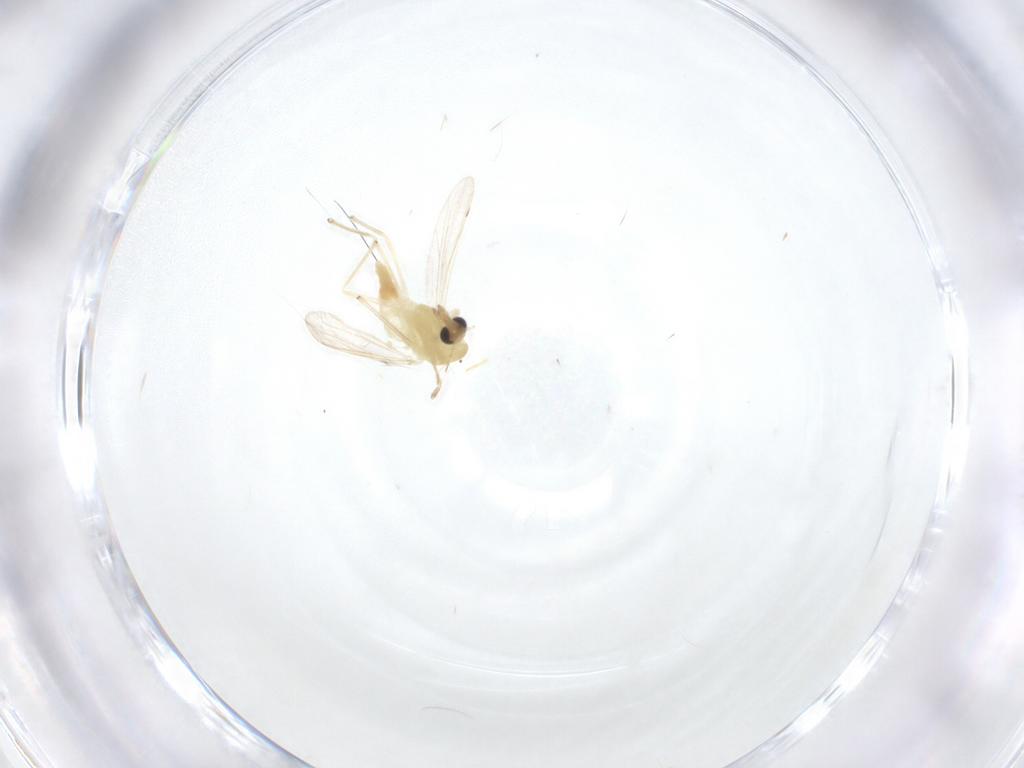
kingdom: Animalia
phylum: Arthropoda
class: Insecta
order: Diptera
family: Chironomidae
